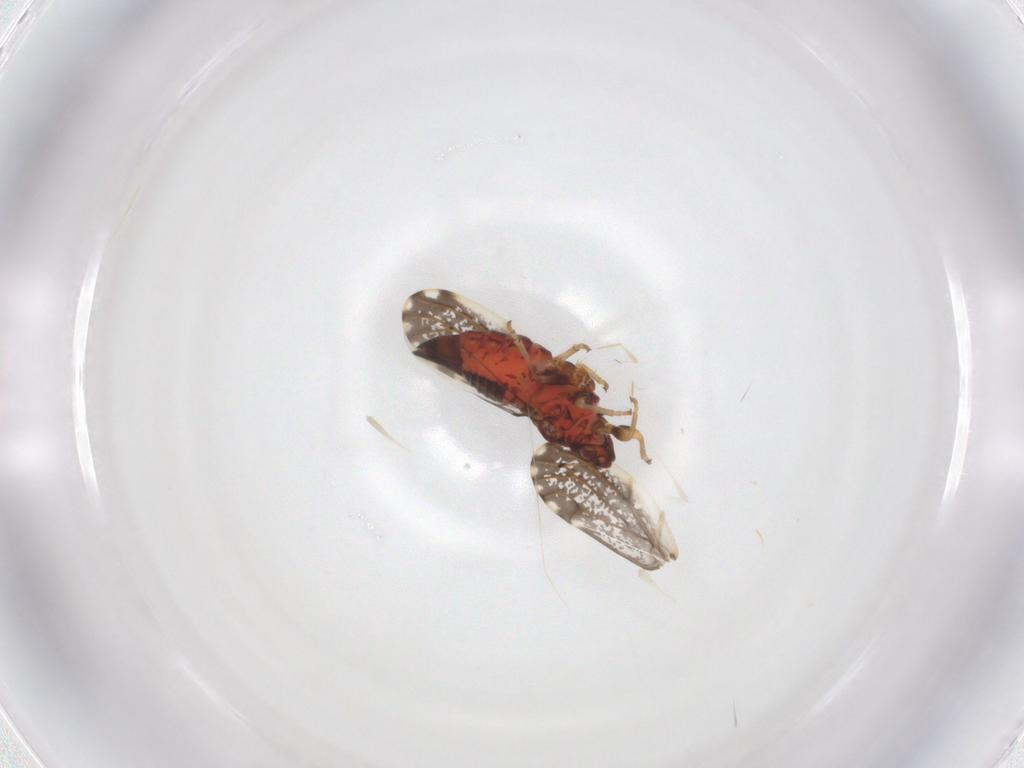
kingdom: Animalia
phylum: Arthropoda
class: Insecta
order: Hemiptera
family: Psylloidea_incertae_sedis
